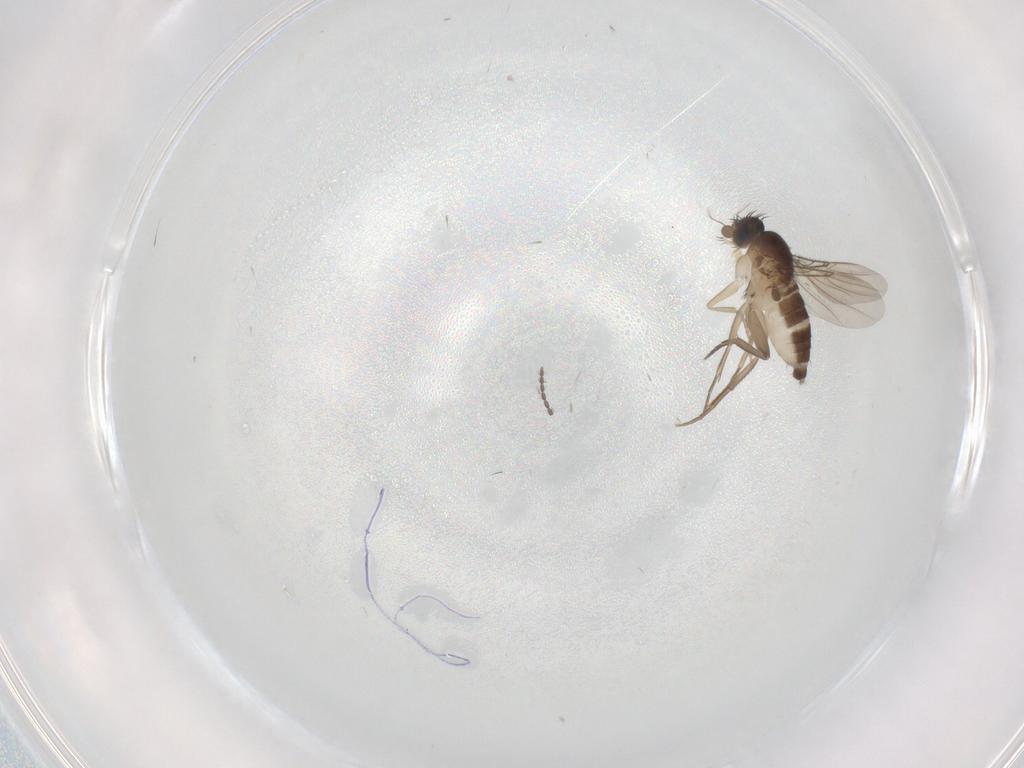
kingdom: Animalia
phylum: Arthropoda
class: Insecta
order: Diptera
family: Phoridae
